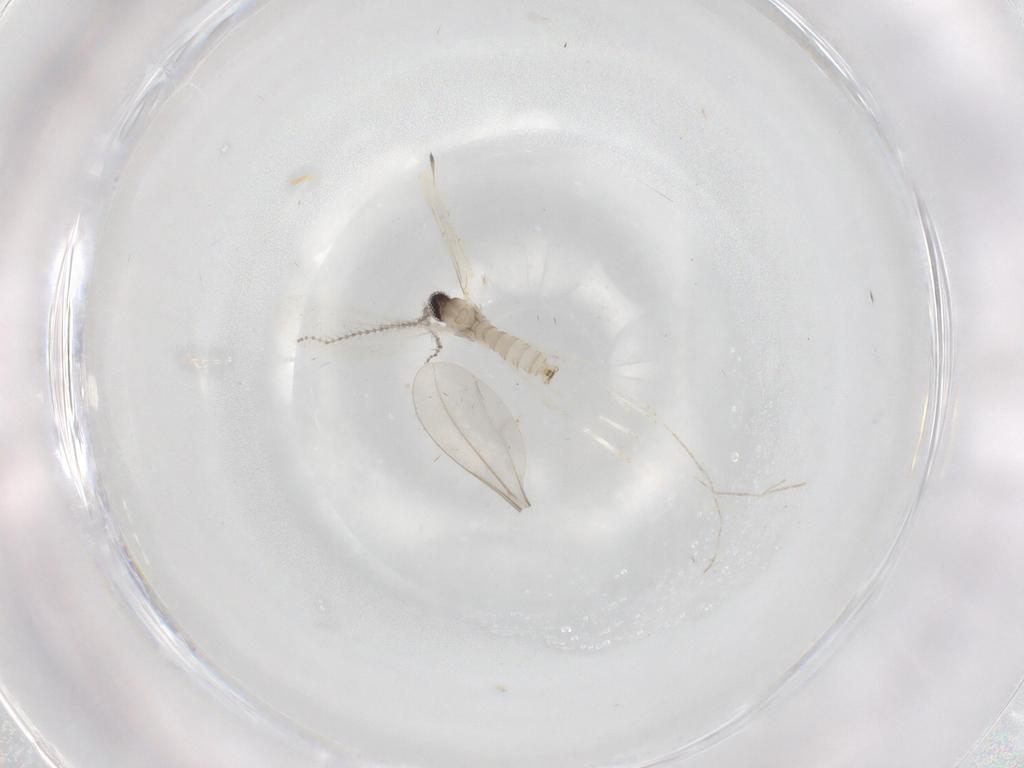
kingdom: Animalia
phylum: Arthropoda
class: Insecta
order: Diptera
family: Cecidomyiidae
